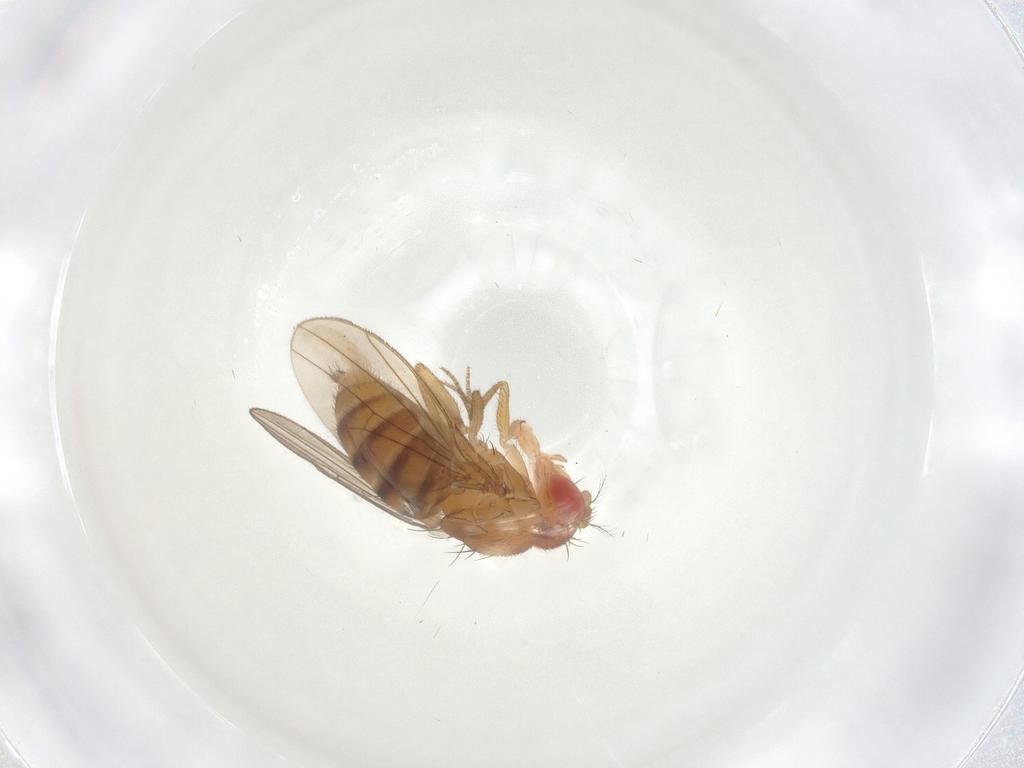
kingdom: Animalia
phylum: Arthropoda
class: Insecta
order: Diptera
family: Drosophilidae
